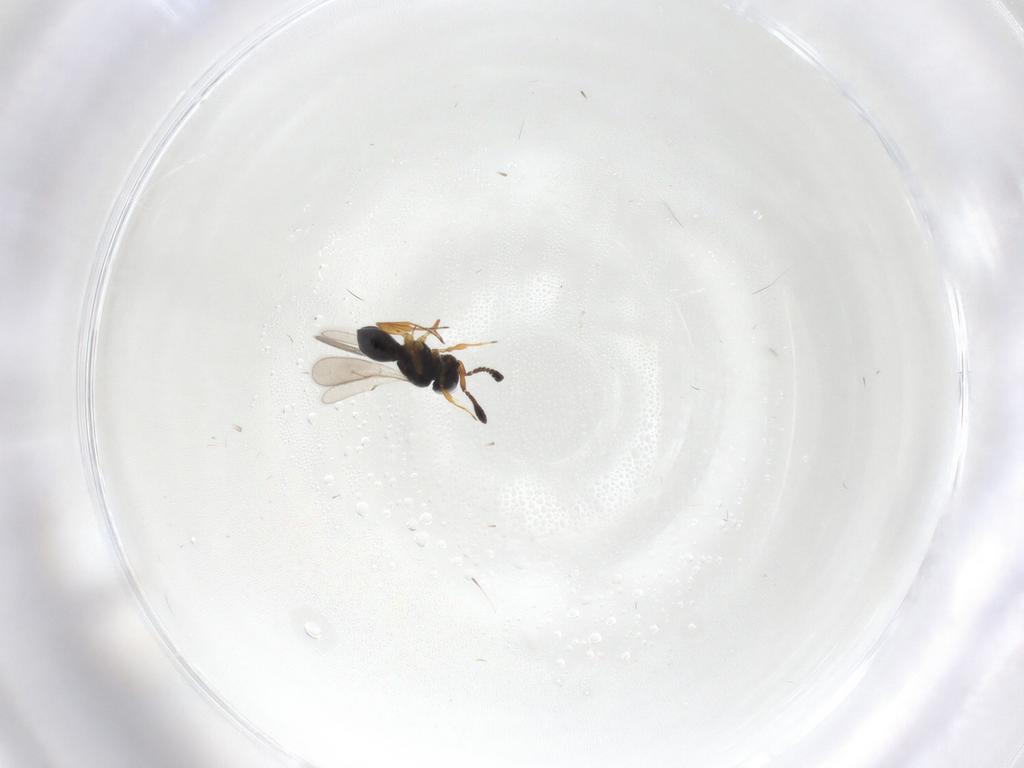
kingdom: Animalia
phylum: Arthropoda
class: Insecta
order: Hymenoptera
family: Scelionidae
